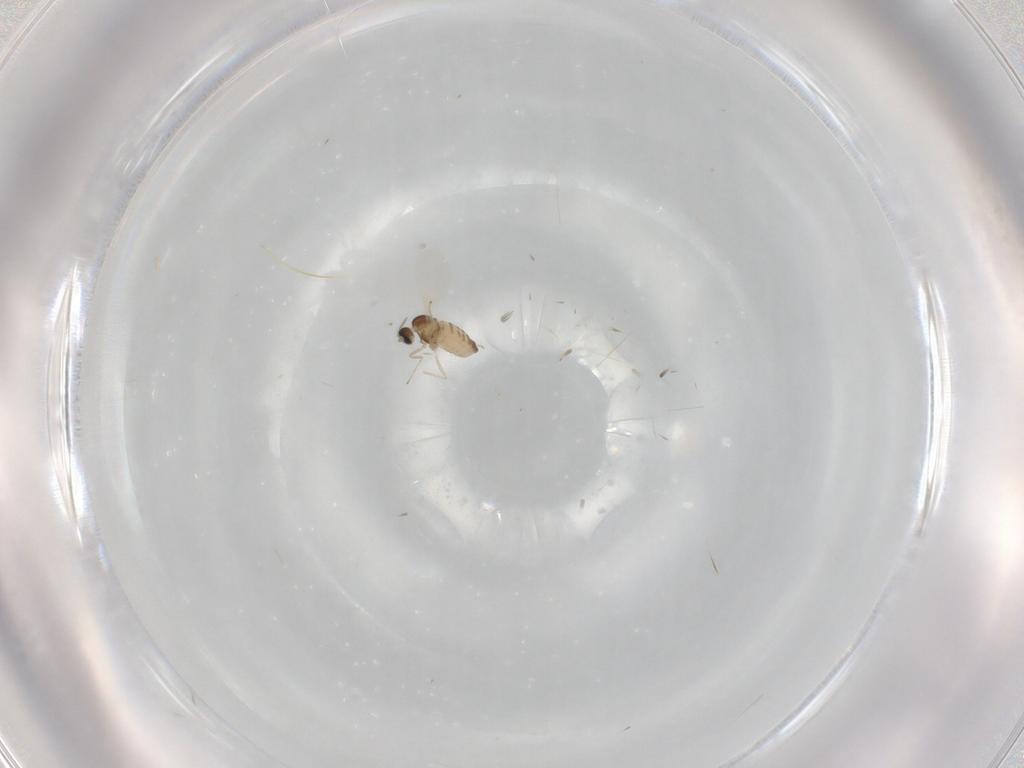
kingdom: Animalia
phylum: Arthropoda
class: Insecta
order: Diptera
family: Cecidomyiidae
